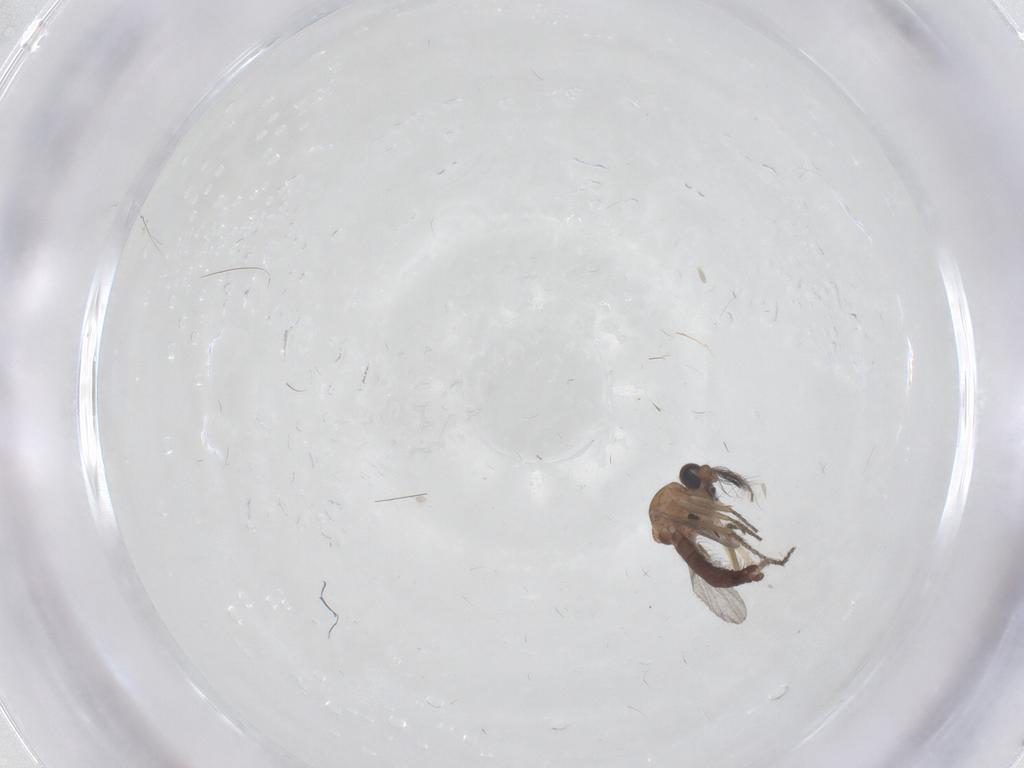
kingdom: Animalia
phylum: Arthropoda
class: Insecta
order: Diptera
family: Ceratopogonidae
